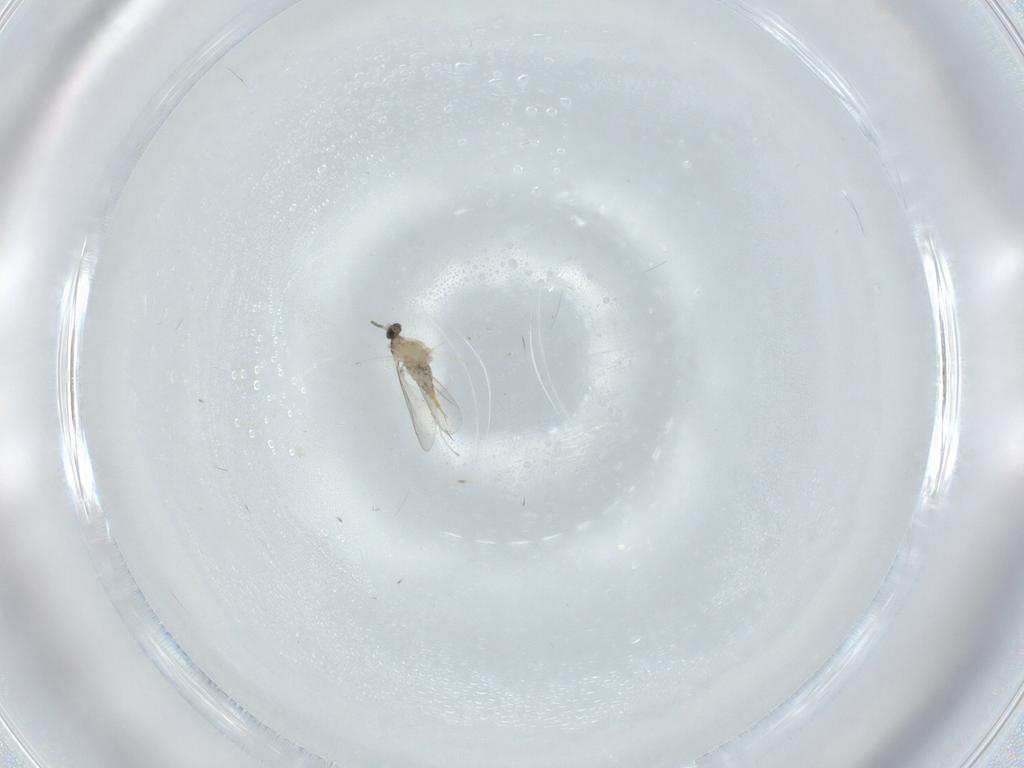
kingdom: Animalia
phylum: Arthropoda
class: Insecta
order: Diptera
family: Cecidomyiidae
